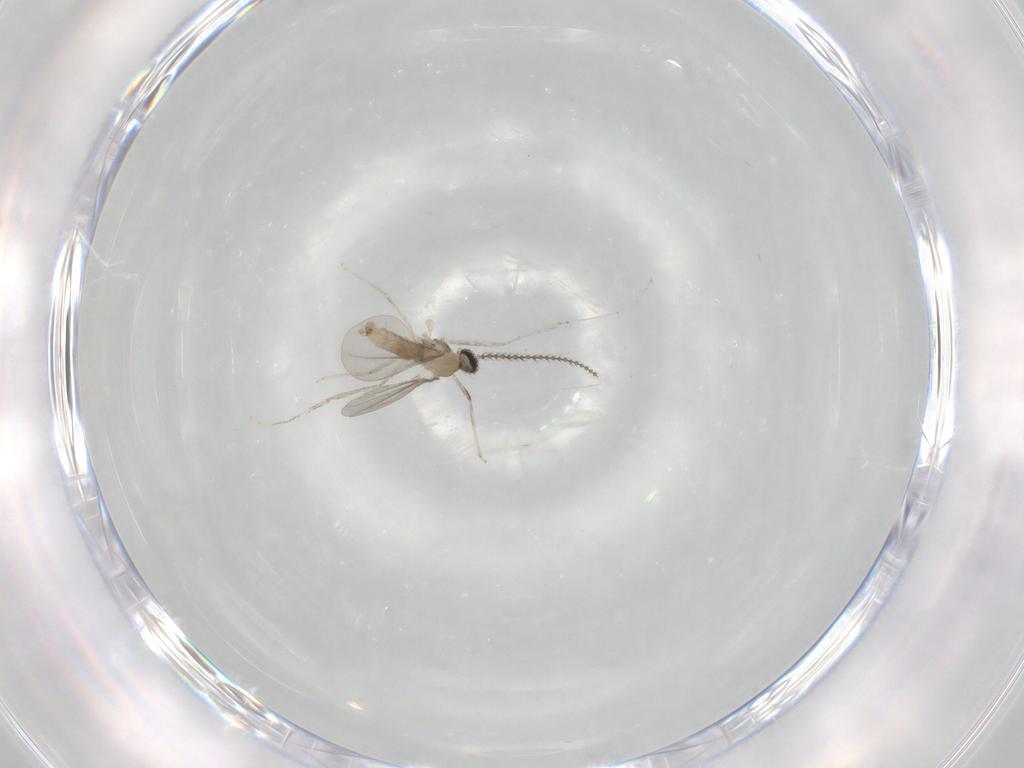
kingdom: Animalia
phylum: Arthropoda
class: Insecta
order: Diptera
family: Cecidomyiidae
